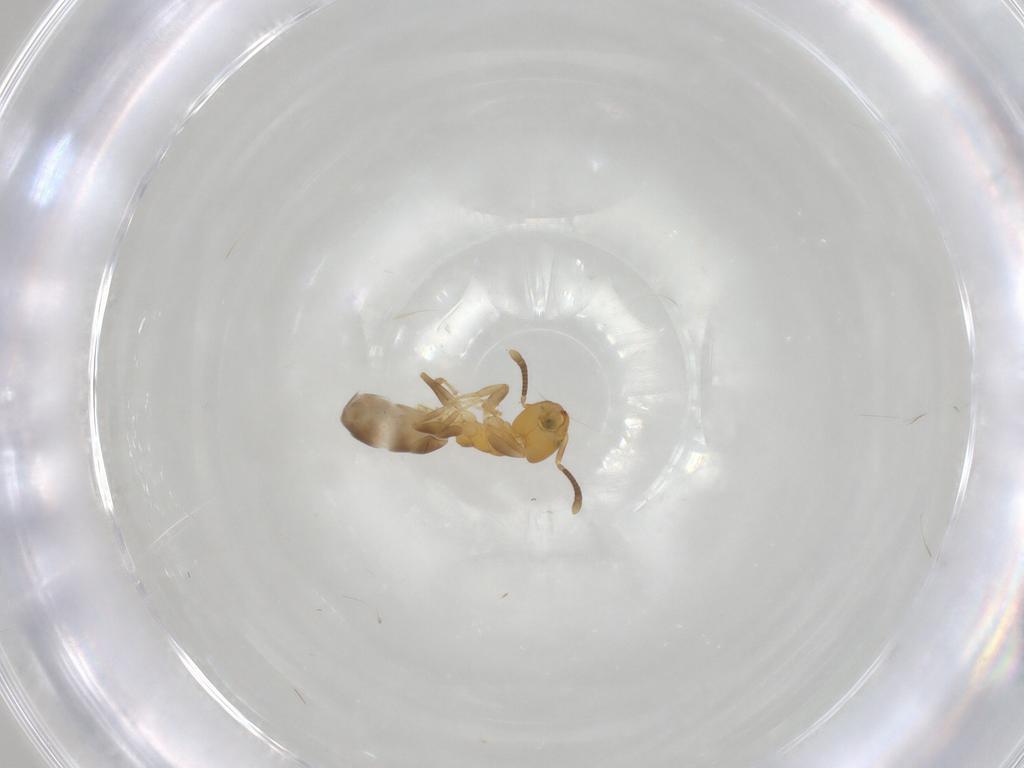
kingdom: Animalia
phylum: Arthropoda
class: Insecta
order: Hymenoptera
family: Formicidae
